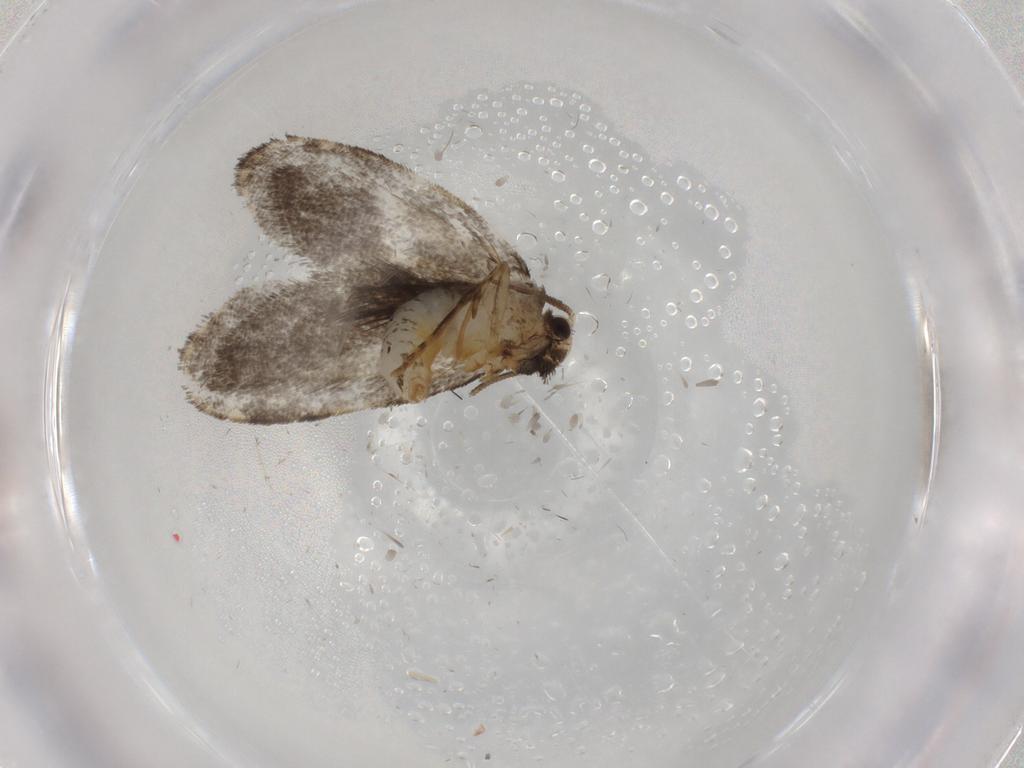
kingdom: Animalia
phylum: Arthropoda
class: Insecta
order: Lepidoptera
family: Psychidae
